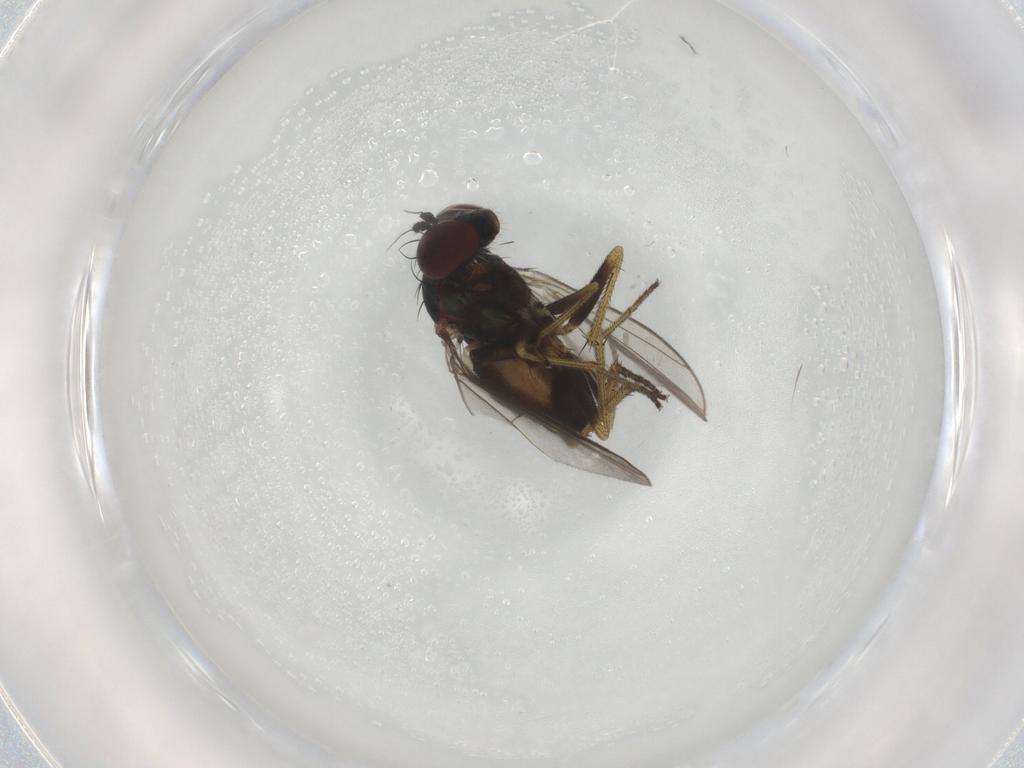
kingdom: Animalia
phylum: Arthropoda
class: Insecta
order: Diptera
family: Sciaridae
